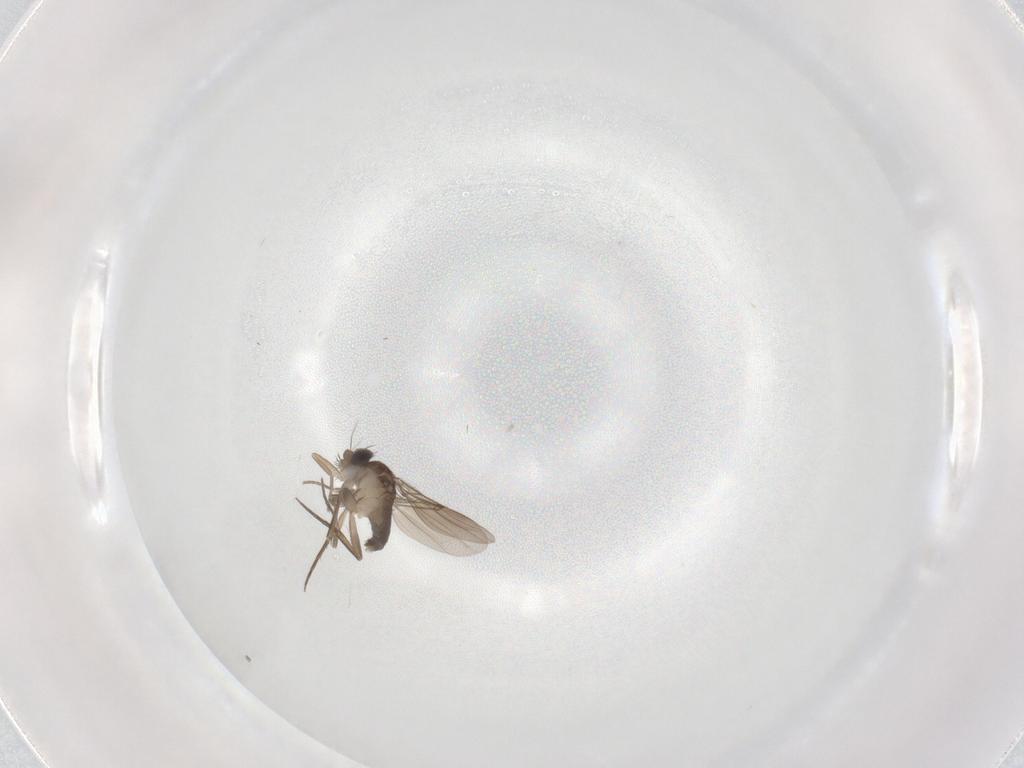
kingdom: Animalia
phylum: Arthropoda
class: Insecta
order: Diptera
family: Phoridae
